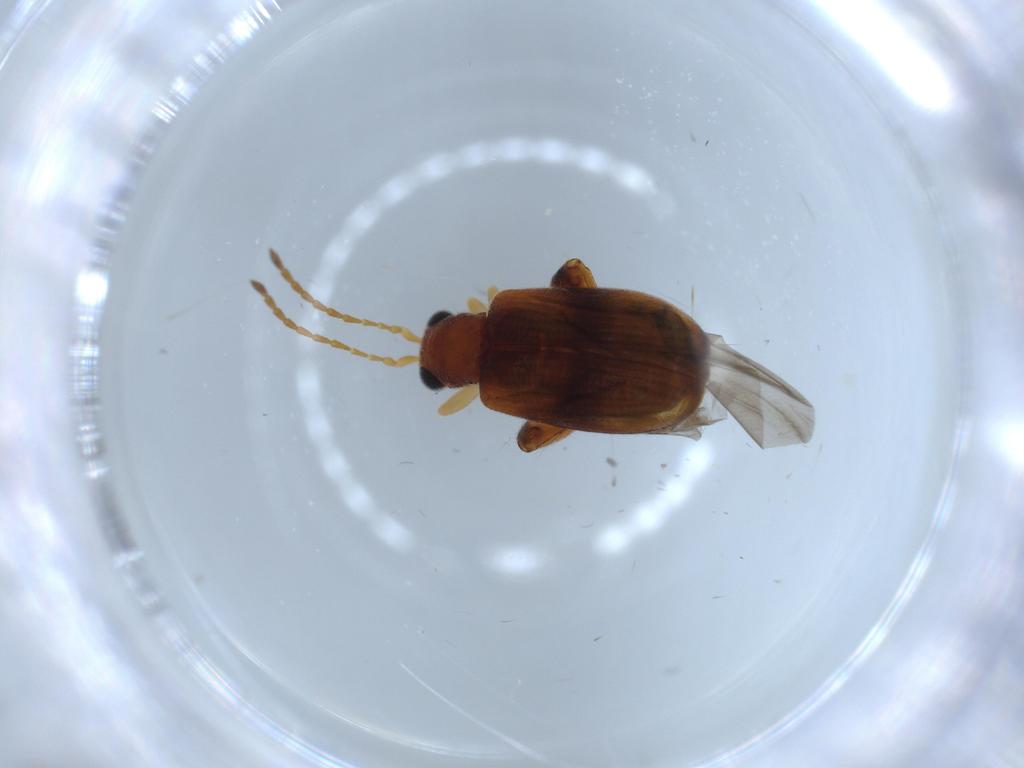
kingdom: Animalia
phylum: Arthropoda
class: Insecta
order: Coleoptera
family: Chrysomelidae
